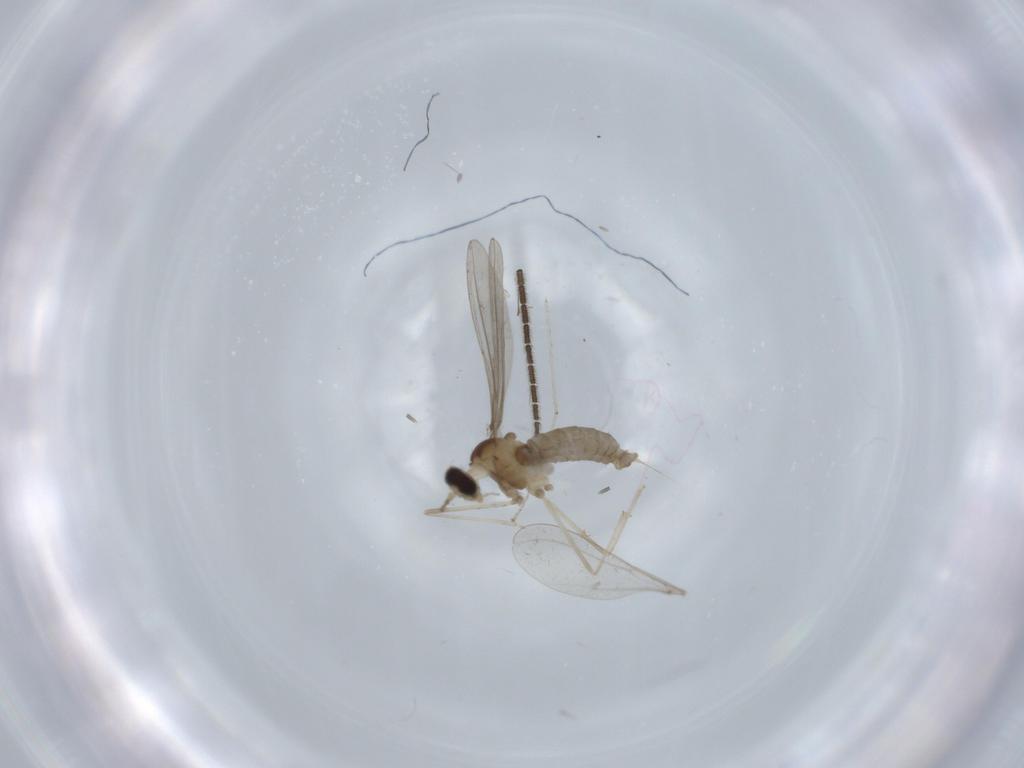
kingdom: Animalia
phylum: Arthropoda
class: Insecta
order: Diptera
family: Cecidomyiidae
